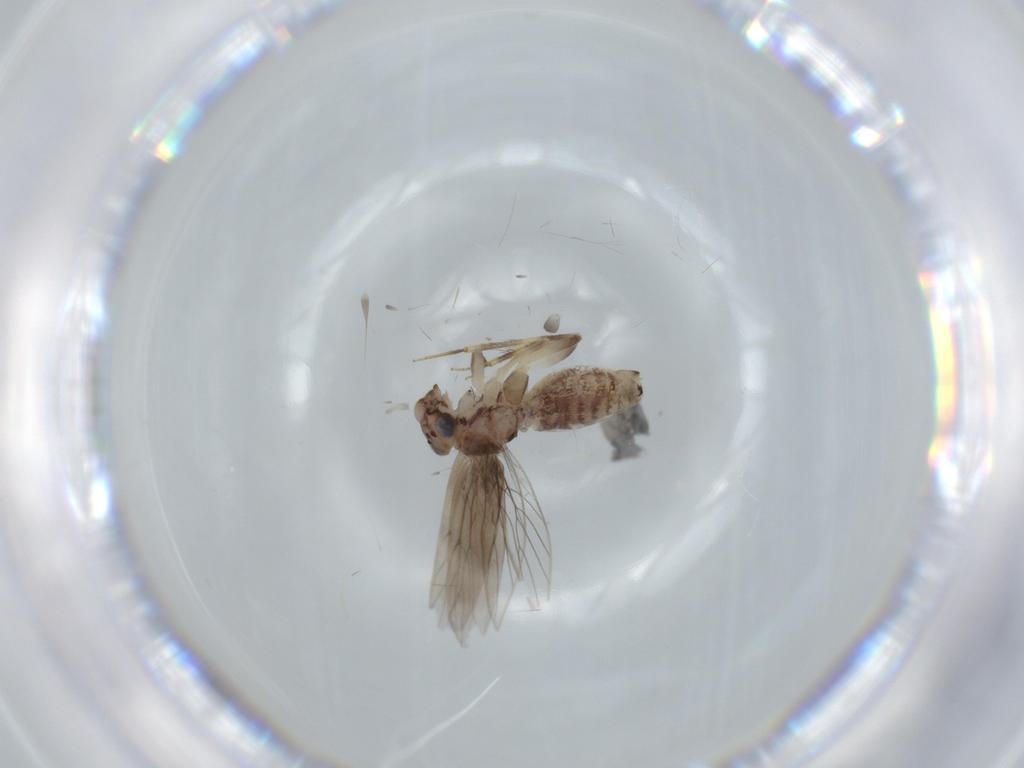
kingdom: Animalia
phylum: Arthropoda
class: Insecta
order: Psocodea
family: Lepidopsocidae
